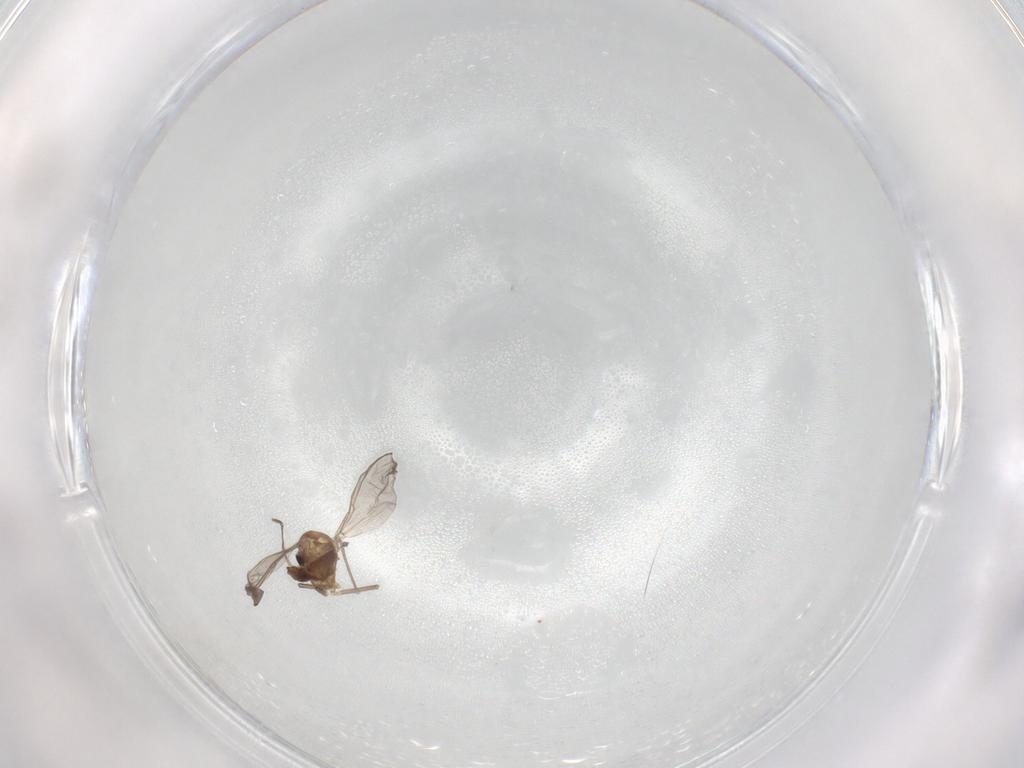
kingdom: Animalia
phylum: Arthropoda
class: Insecta
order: Diptera
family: Chironomidae
